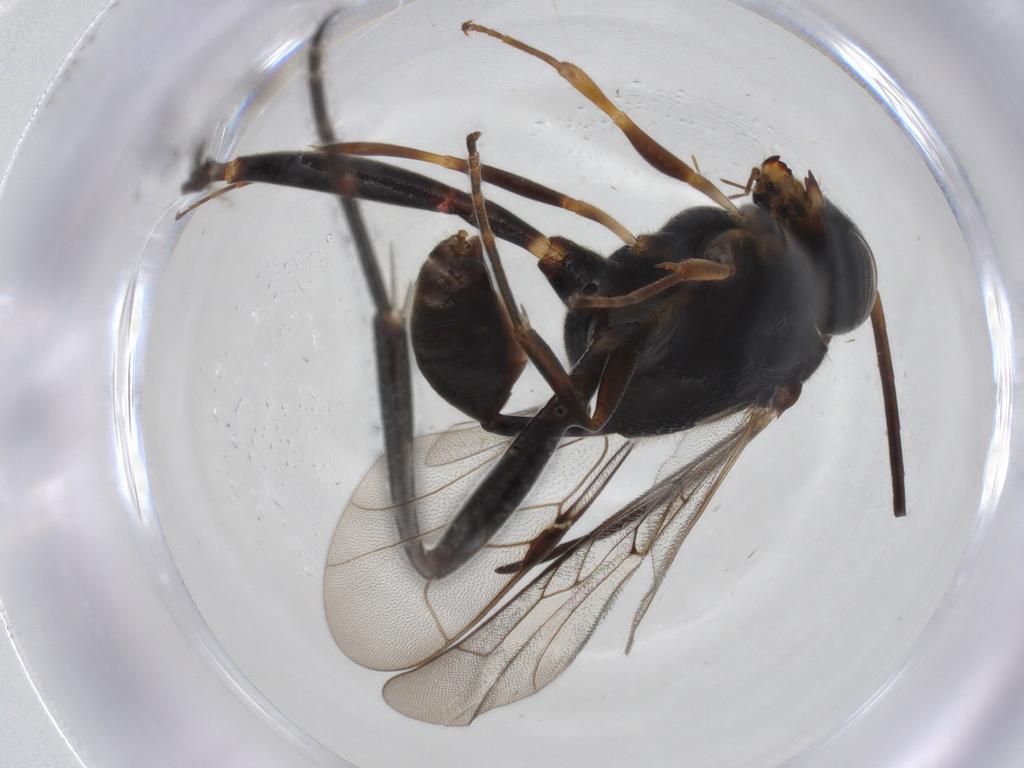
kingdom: Animalia
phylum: Arthropoda
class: Insecta
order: Hymenoptera
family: Evaniidae
